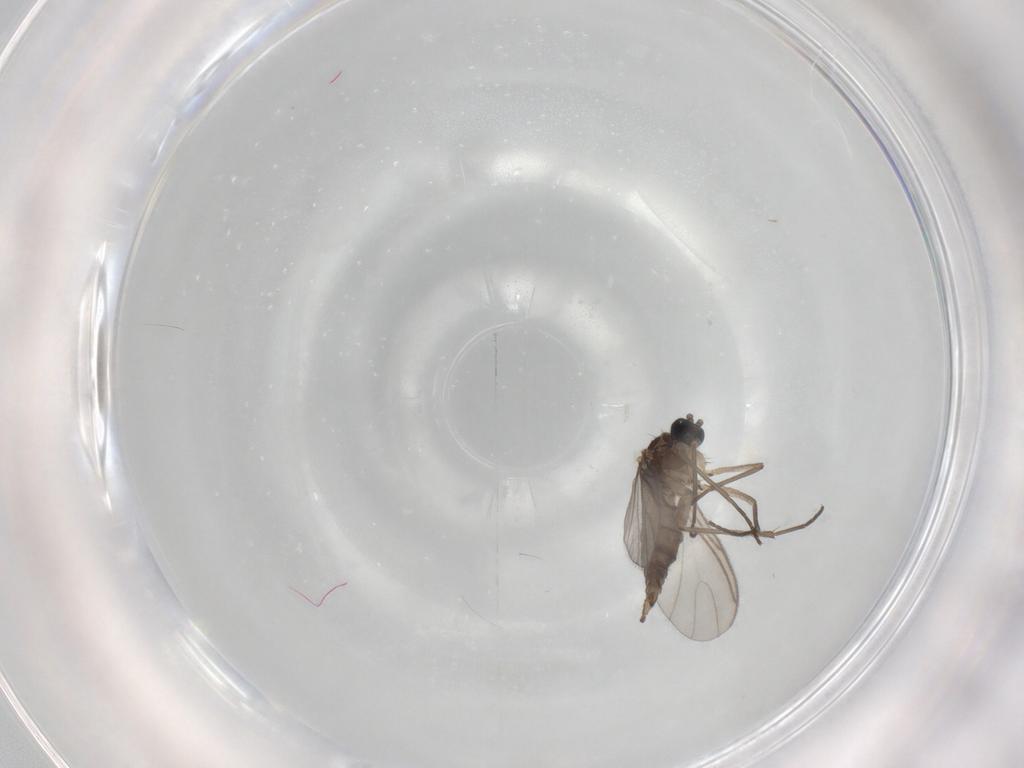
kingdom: Animalia
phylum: Arthropoda
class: Insecta
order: Diptera
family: Sciaridae
